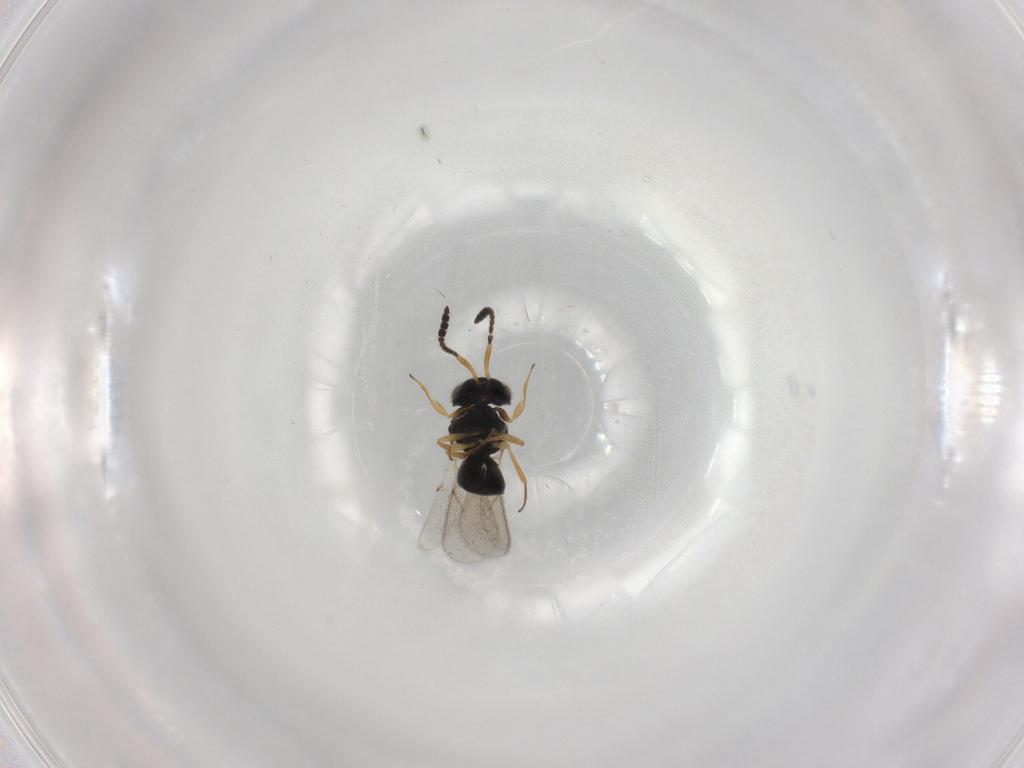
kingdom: Animalia
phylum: Arthropoda
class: Insecta
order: Hymenoptera
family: Scelionidae
